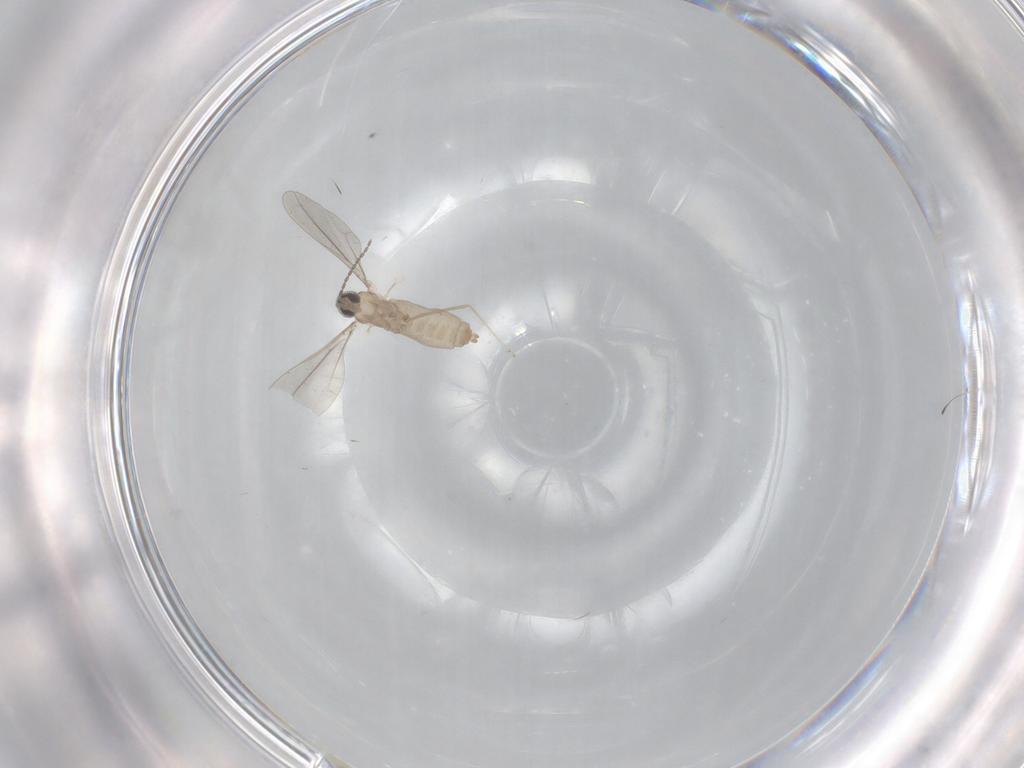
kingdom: Animalia
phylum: Arthropoda
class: Insecta
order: Diptera
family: Cecidomyiidae
